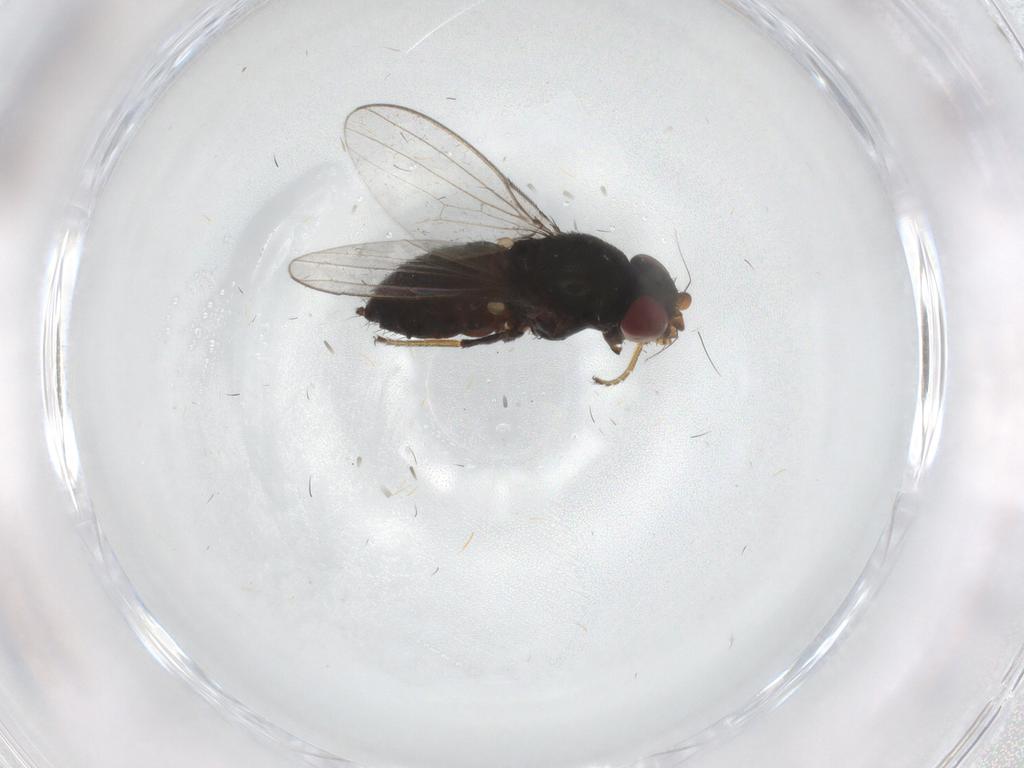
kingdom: Animalia
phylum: Arthropoda
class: Insecta
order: Diptera
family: Milichiidae
